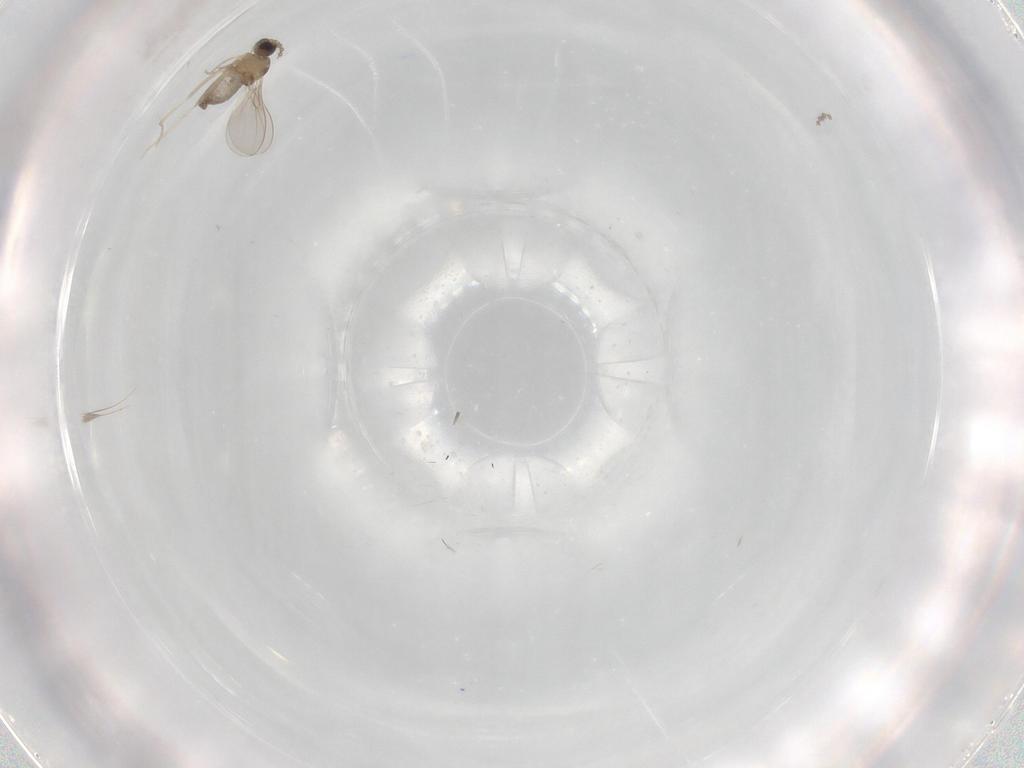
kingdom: Animalia
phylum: Arthropoda
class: Insecta
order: Diptera
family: Cecidomyiidae
